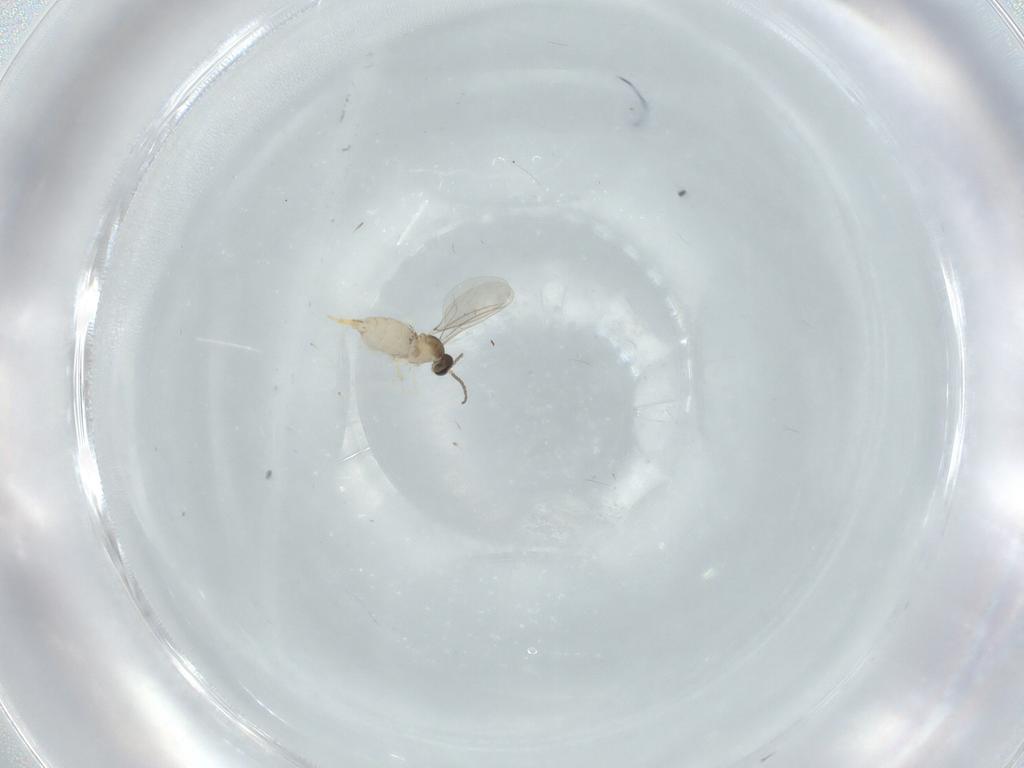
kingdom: Animalia
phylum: Arthropoda
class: Insecta
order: Diptera
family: Cecidomyiidae
